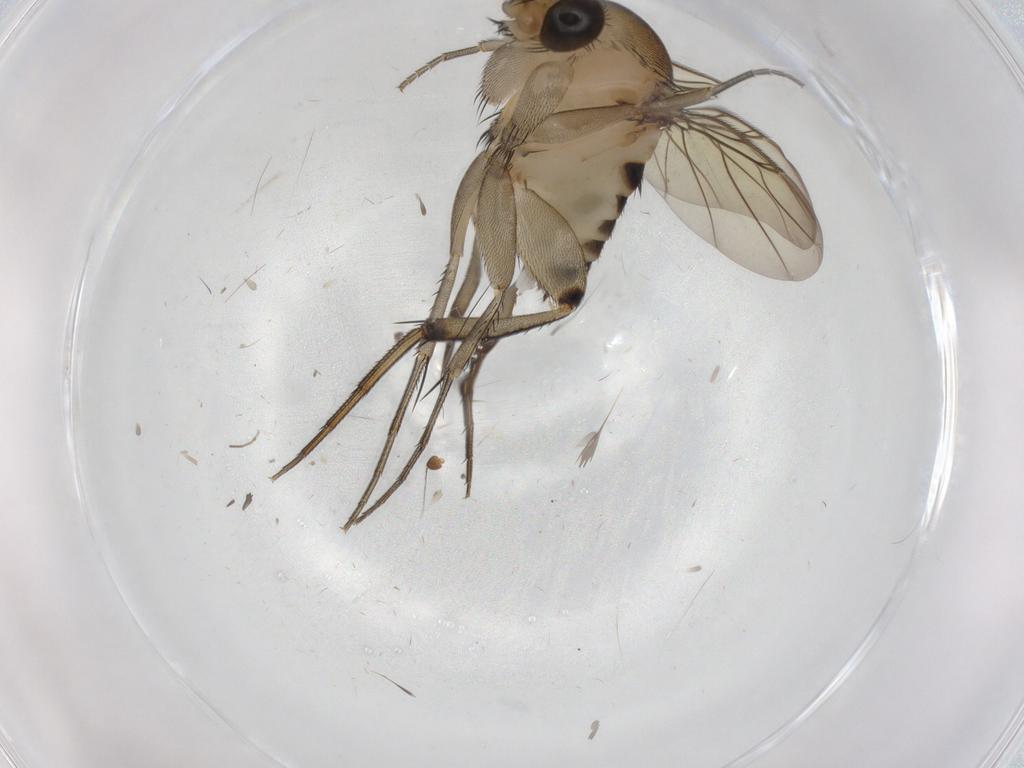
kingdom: Animalia
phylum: Arthropoda
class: Insecta
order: Diptera
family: Phoridae
